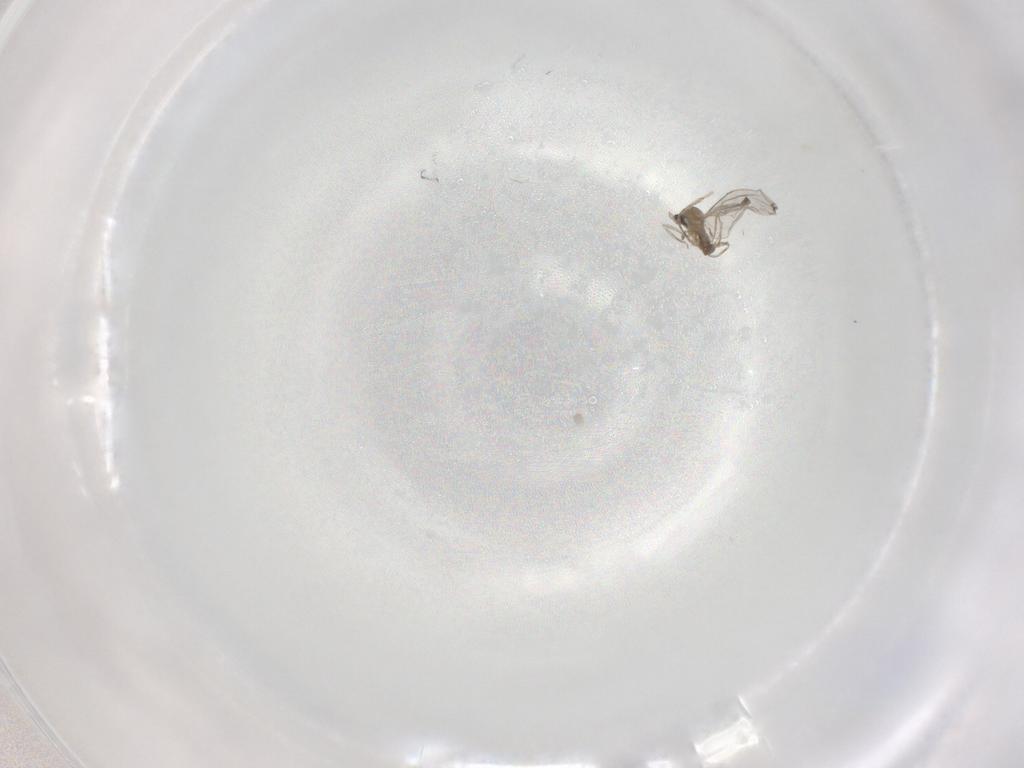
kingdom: Animalia
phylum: Arthropoda
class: Insecta
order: Diptera
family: Cecidomyiidae
